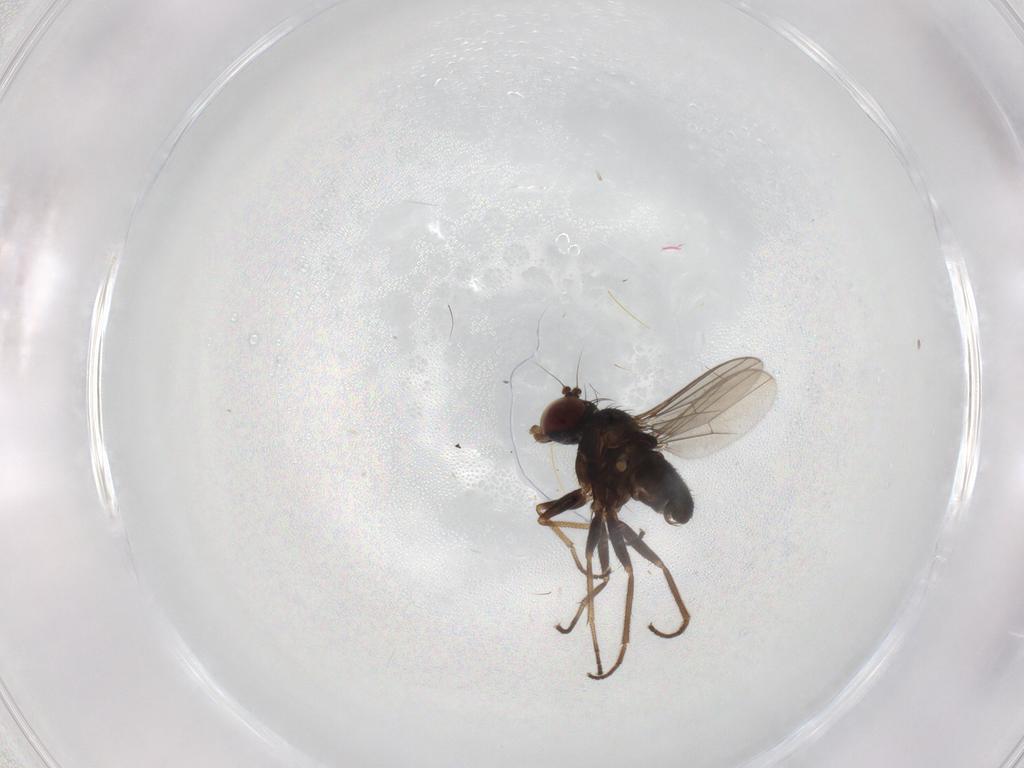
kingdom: Animalia
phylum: Arthropoda
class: Insecta
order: Diptera
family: Dolichopodidae
